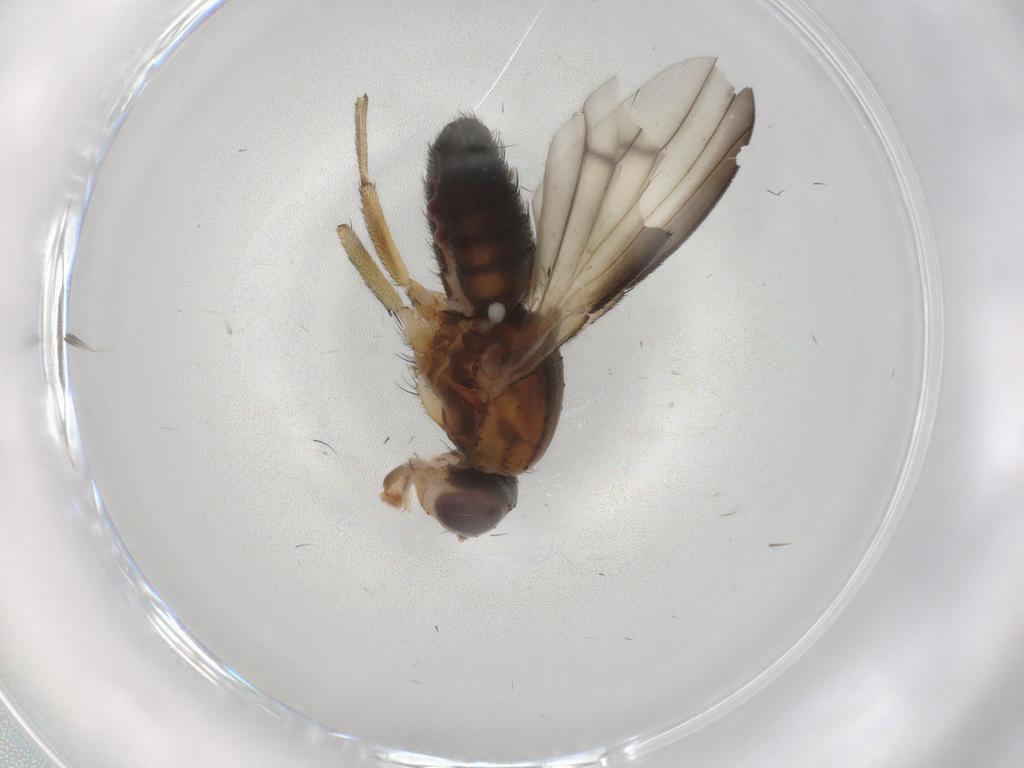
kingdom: Animalia
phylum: Arthropoda
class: Insecta
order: Diptera
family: Heleomyzidae
